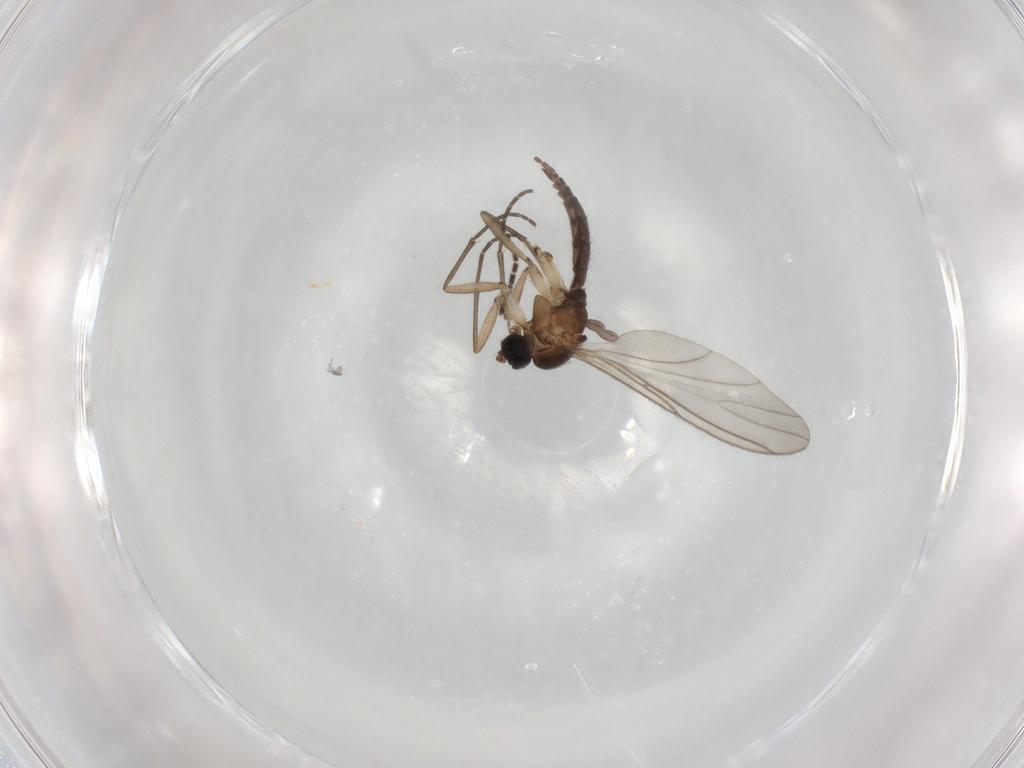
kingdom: Animalia
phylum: Arthropoda
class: Insecta
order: Diptera
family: Sciaridae
